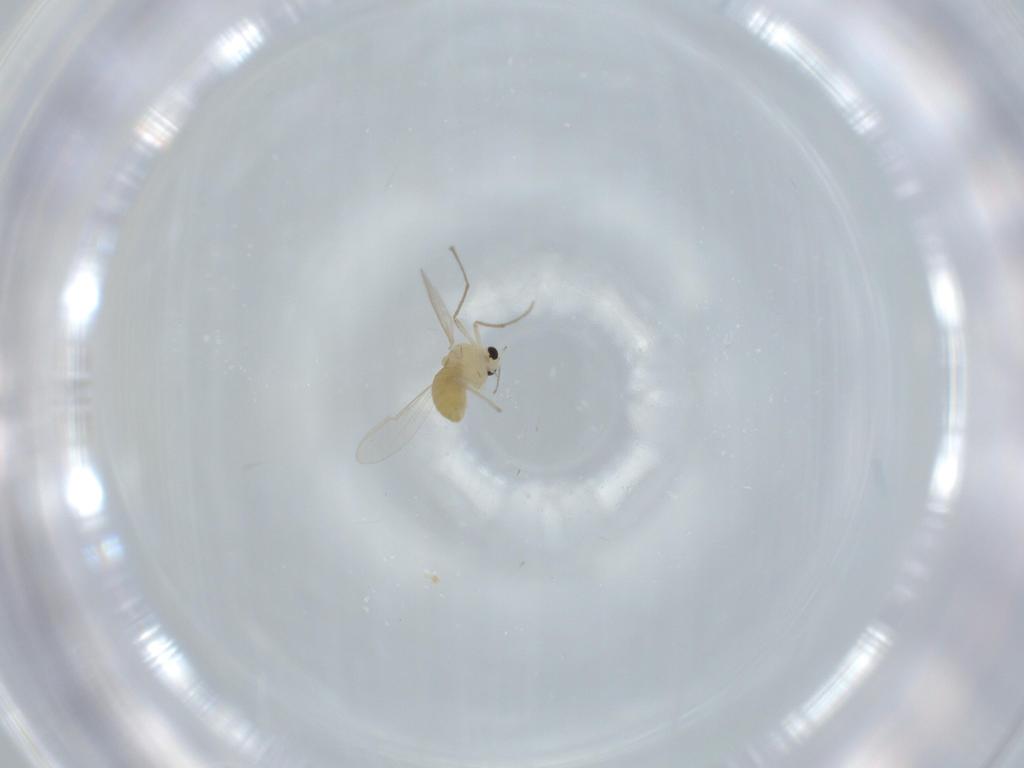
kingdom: Animalia
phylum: Arthropoda
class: Insecta
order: Diptera
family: Chironomidae
